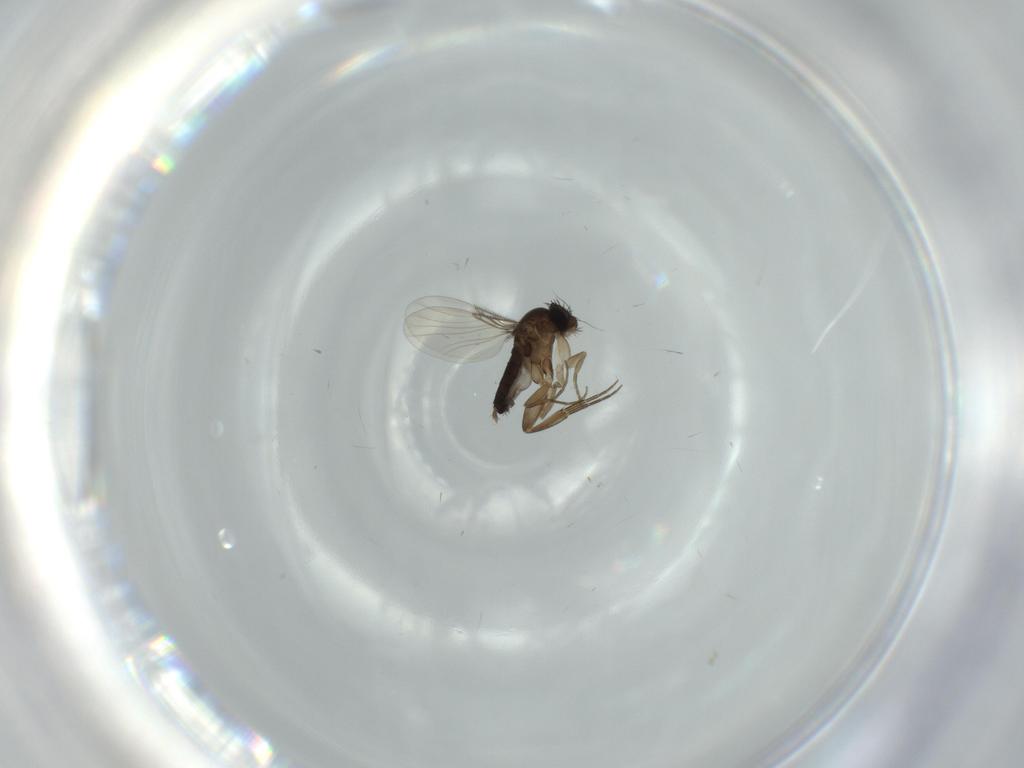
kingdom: Animalia
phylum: Arthropoda
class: Insecta
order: Diptera
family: Phoridae
